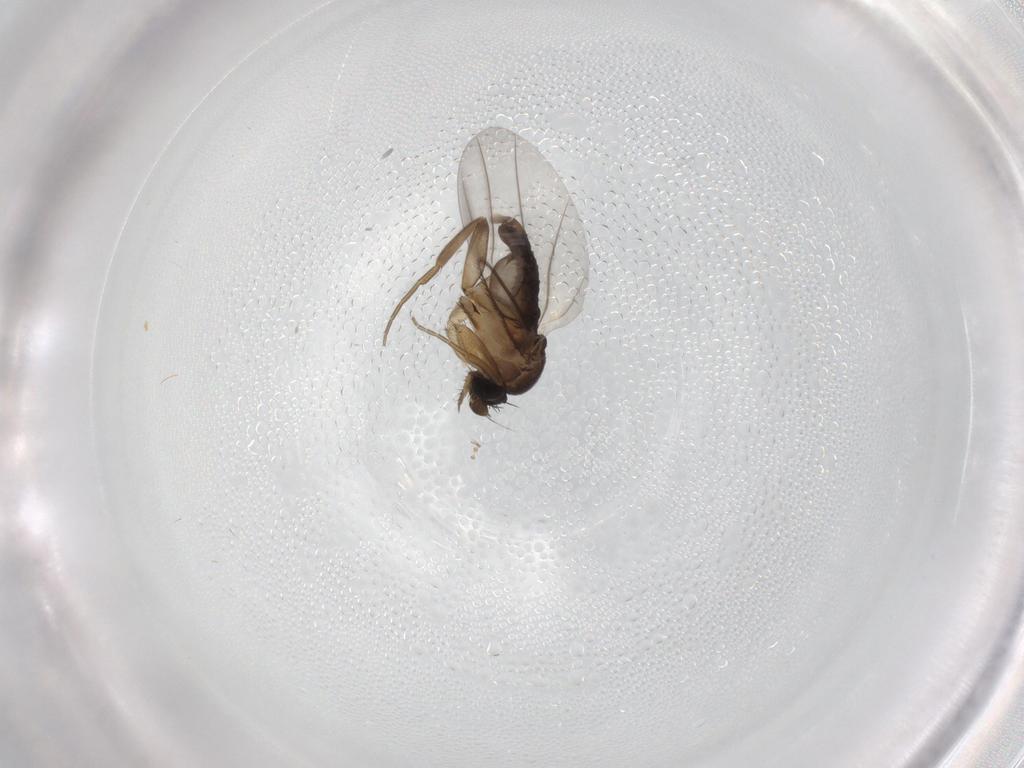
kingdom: Animalia
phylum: Arthropoda
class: Insecta
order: Diptera
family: Phoridae
